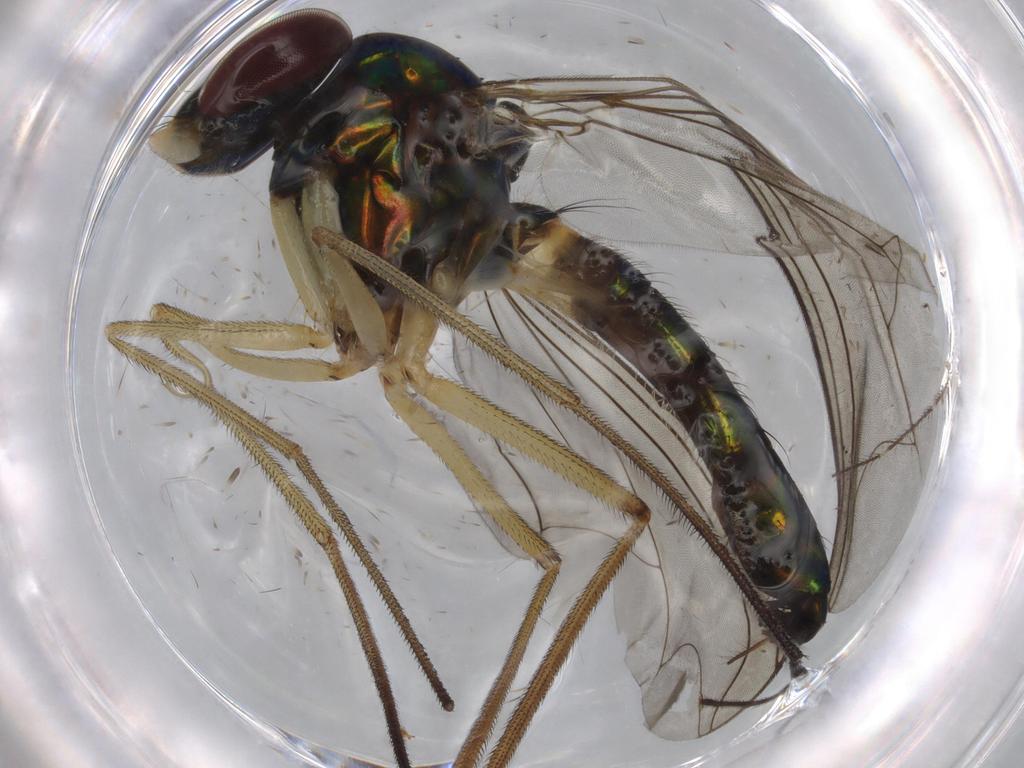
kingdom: Animalia
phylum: Arthropoda
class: Insecta
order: Diptera
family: Dolichopodidae
